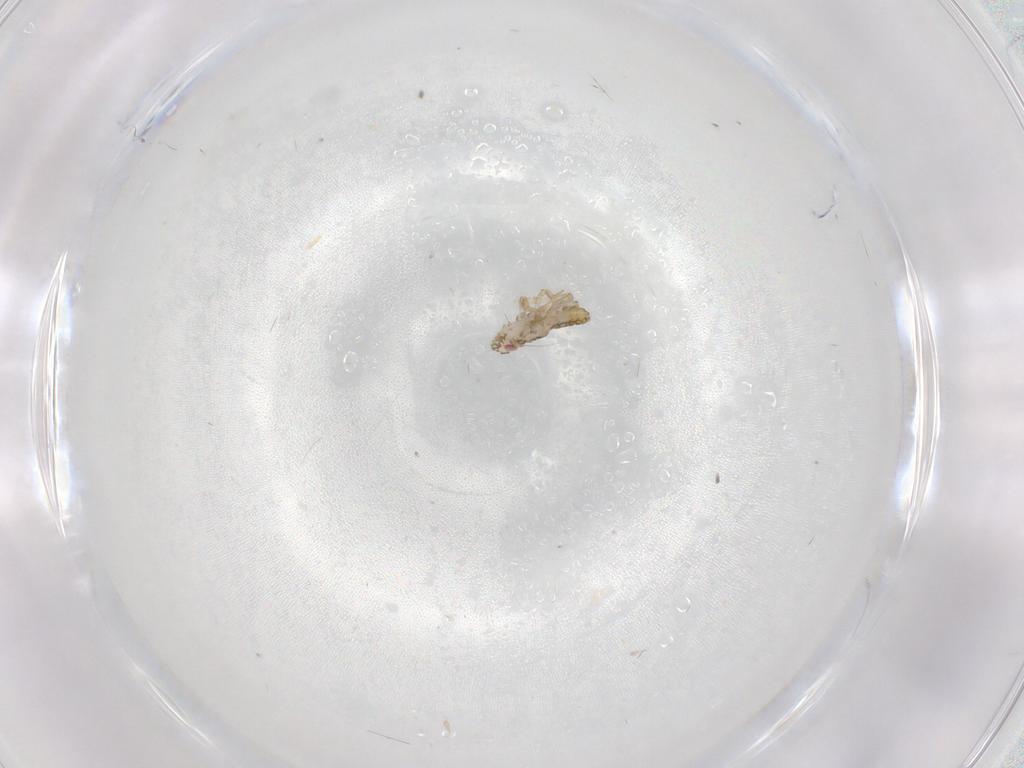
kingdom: Animalia
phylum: Arthropoda
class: Insecta
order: Hemiptera
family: Delphacidae
